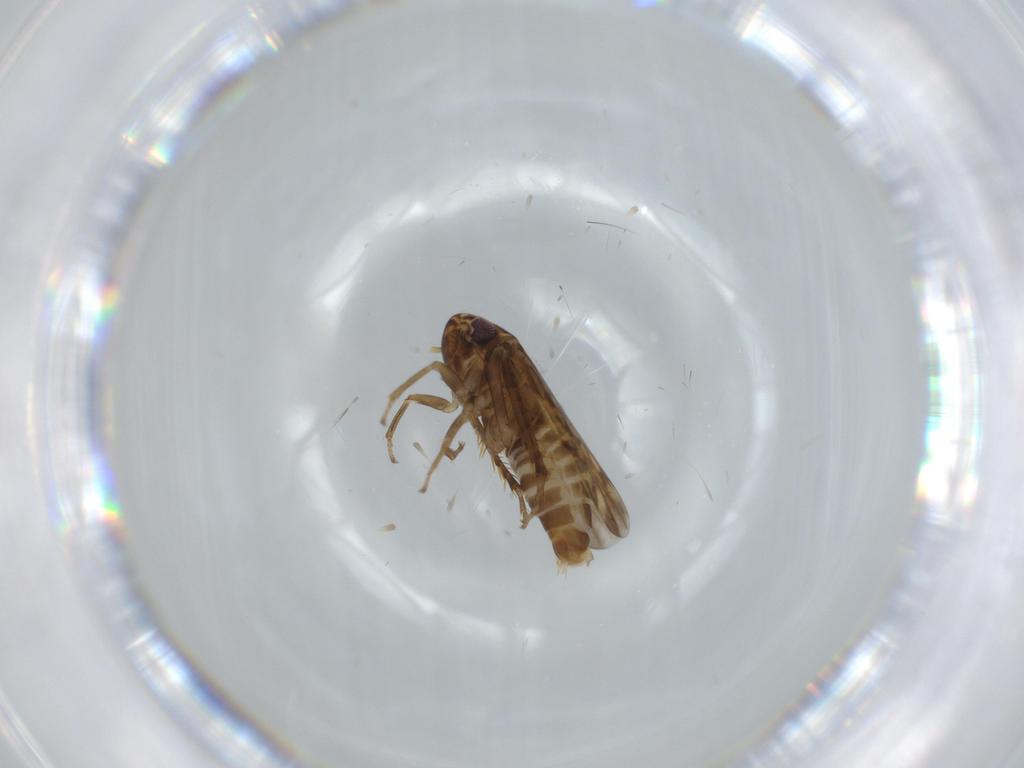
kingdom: Animalia
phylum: Arthropoda
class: Insecta
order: Hemiptera
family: Cicadellidae
